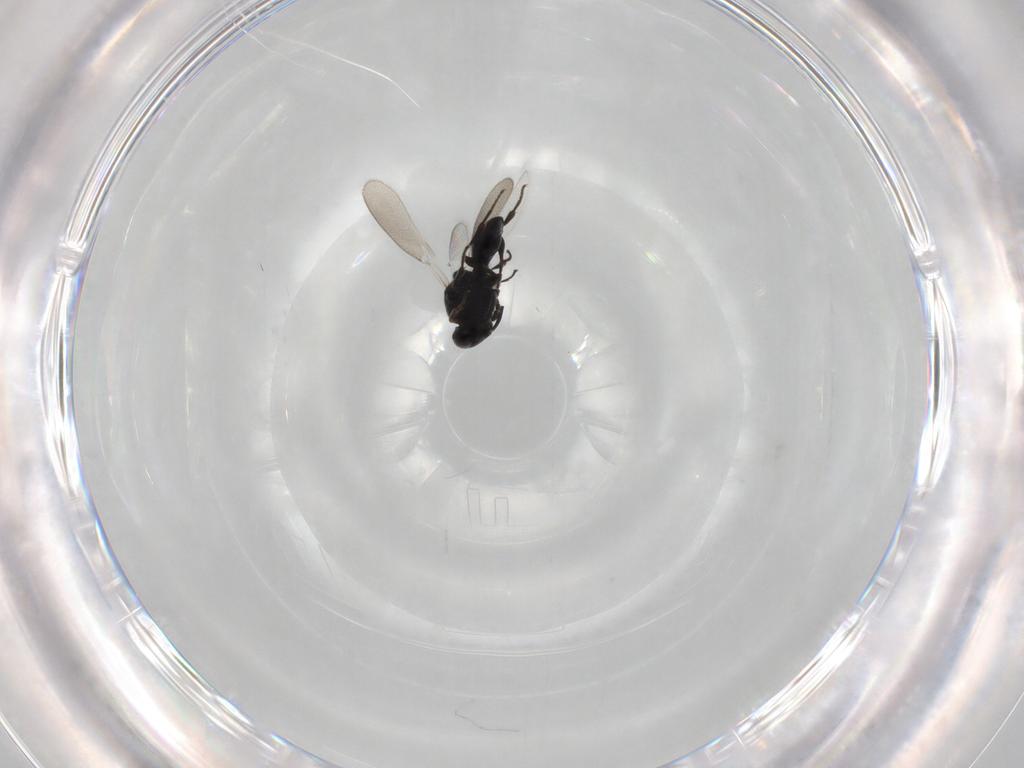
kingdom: Animalia
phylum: Arthropoda
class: Insecta
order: Hymenoptera
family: Platygastridae
